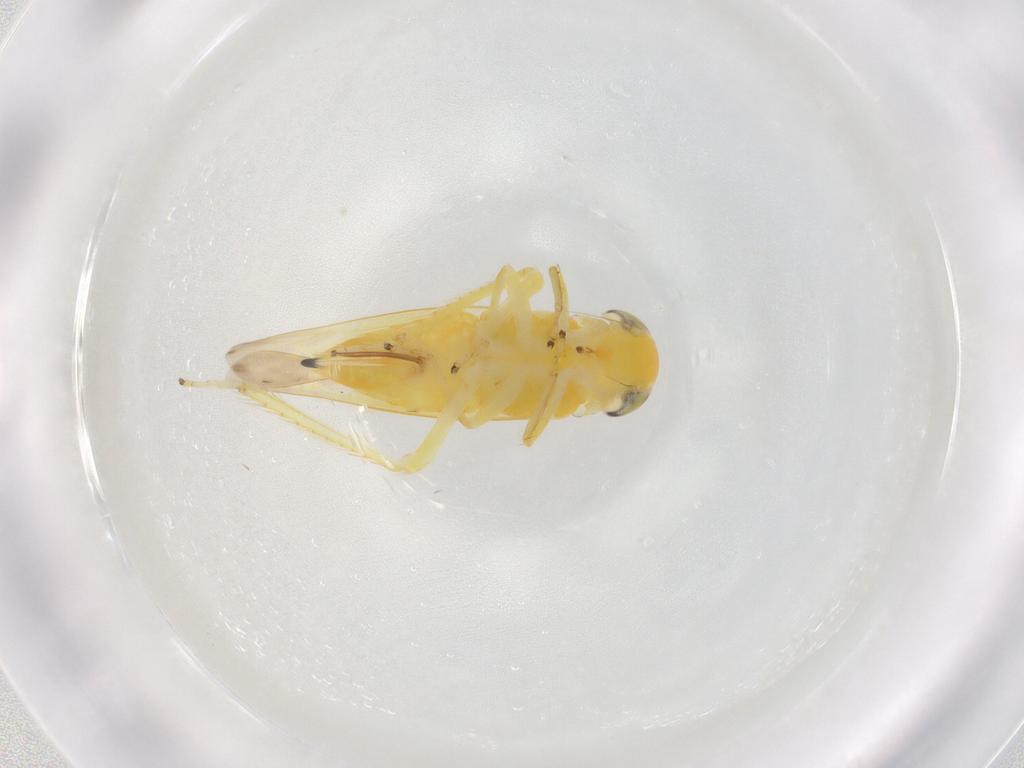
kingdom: Animalia
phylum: Arthropoda
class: Insecta
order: Hemiptera
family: Cicadellidae
